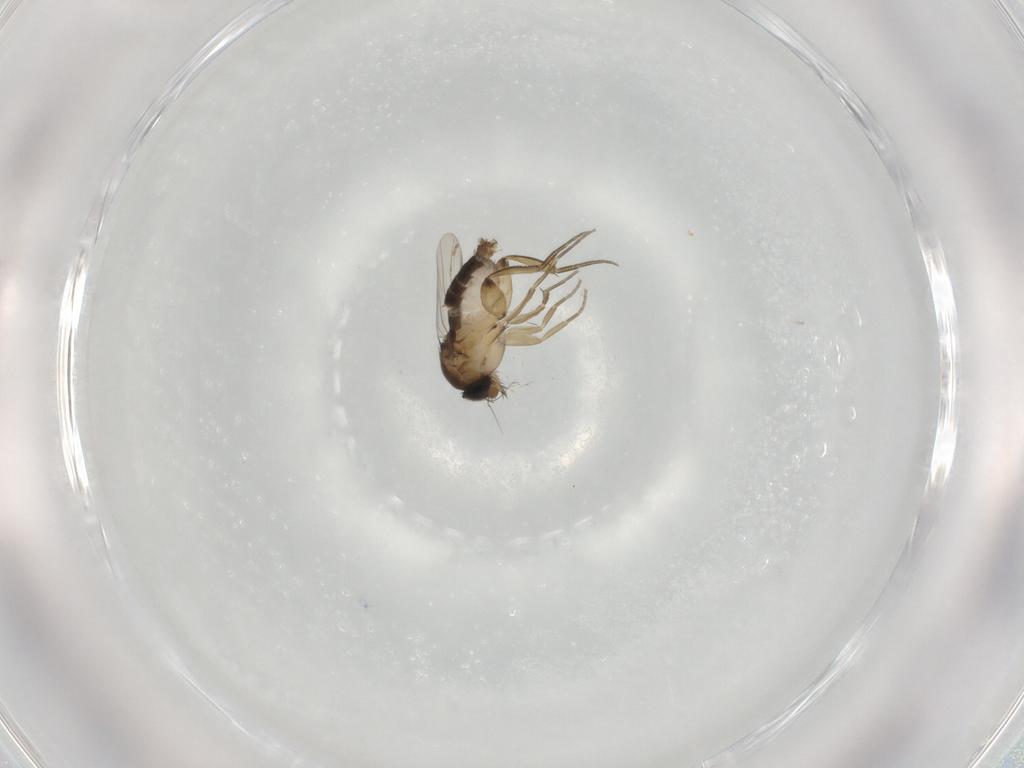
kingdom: Animalia
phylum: Arthropoda
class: Insecta
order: Diptera
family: Phoridae
